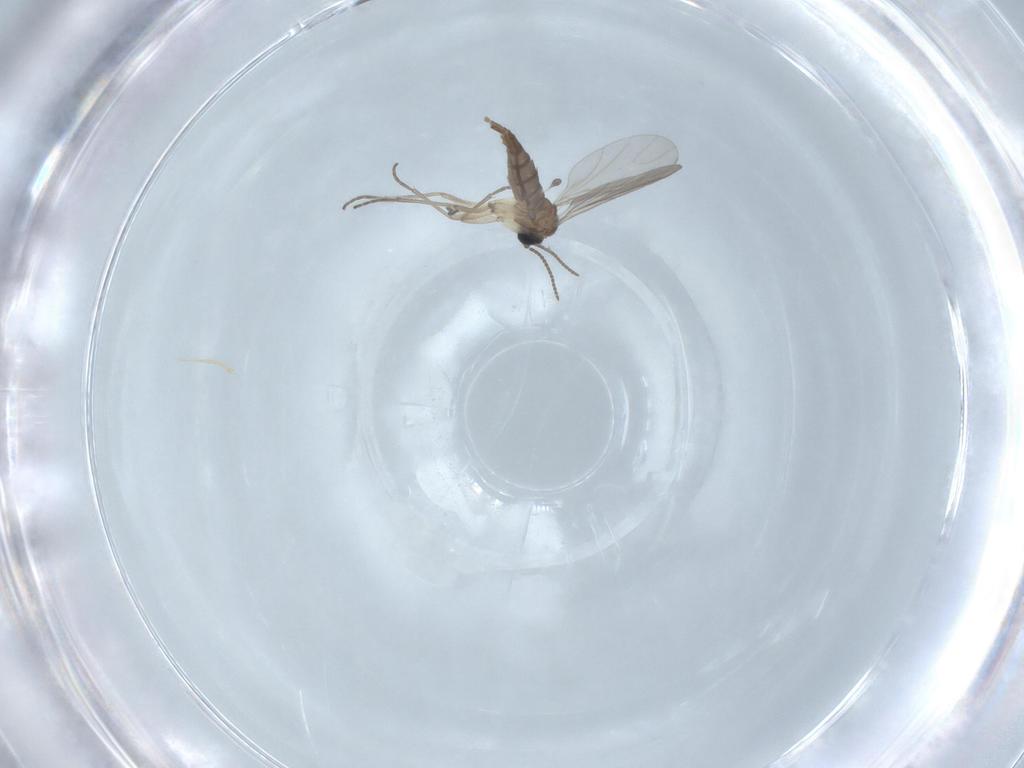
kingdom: Animalia
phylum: Arthropoda
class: Insecta
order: Diptera
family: Sciaridae
